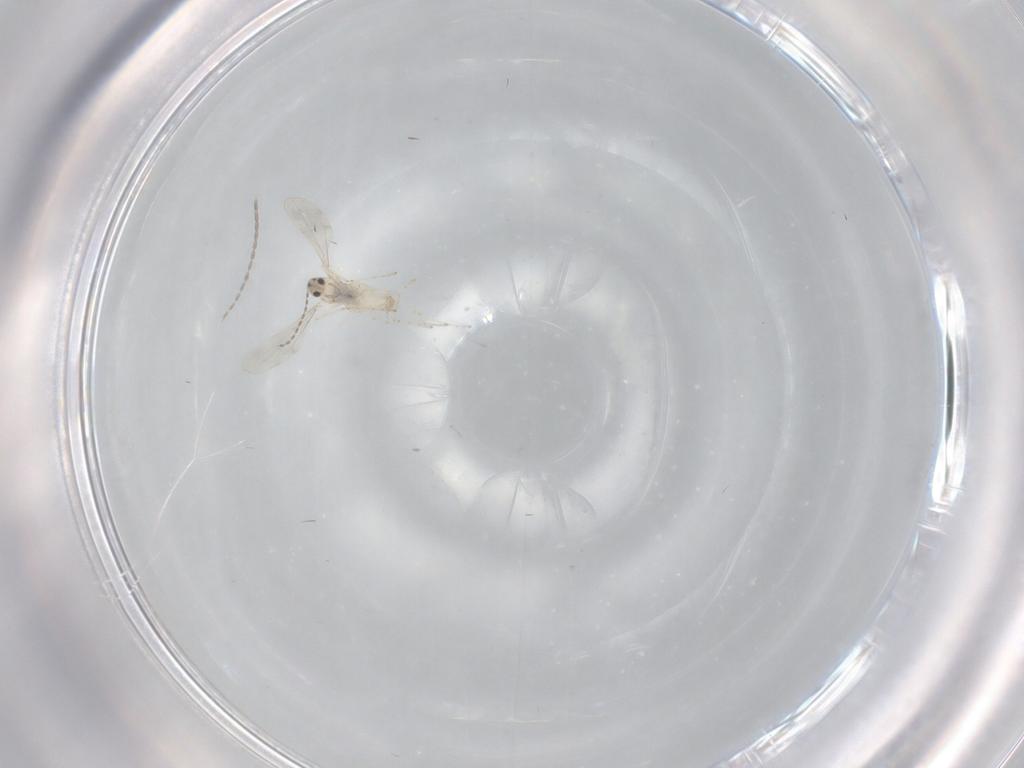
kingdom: Animalia
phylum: Arthropoda
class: Insecta
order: Diptera
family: Cecidomyiidae
